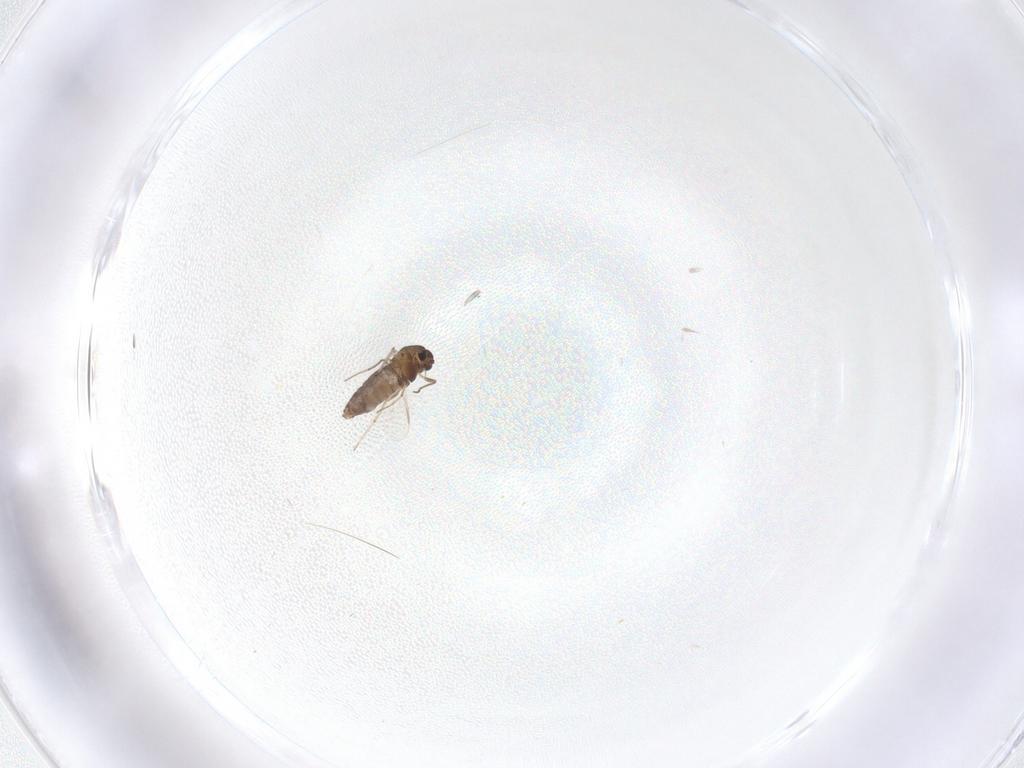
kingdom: Animalia
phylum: Arthropoda
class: Insecta
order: Diptera
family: Chironomidae
